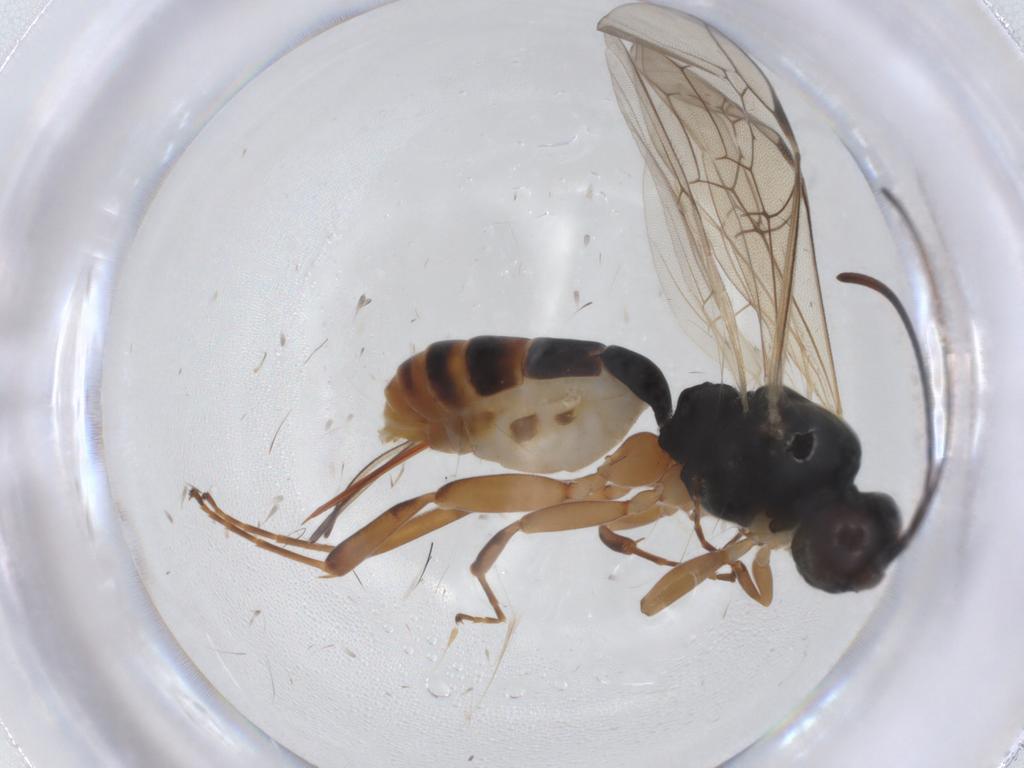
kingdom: Animalia
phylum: Arthropoda
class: Insecta
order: Hymenoptera
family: Ichneumonidae
